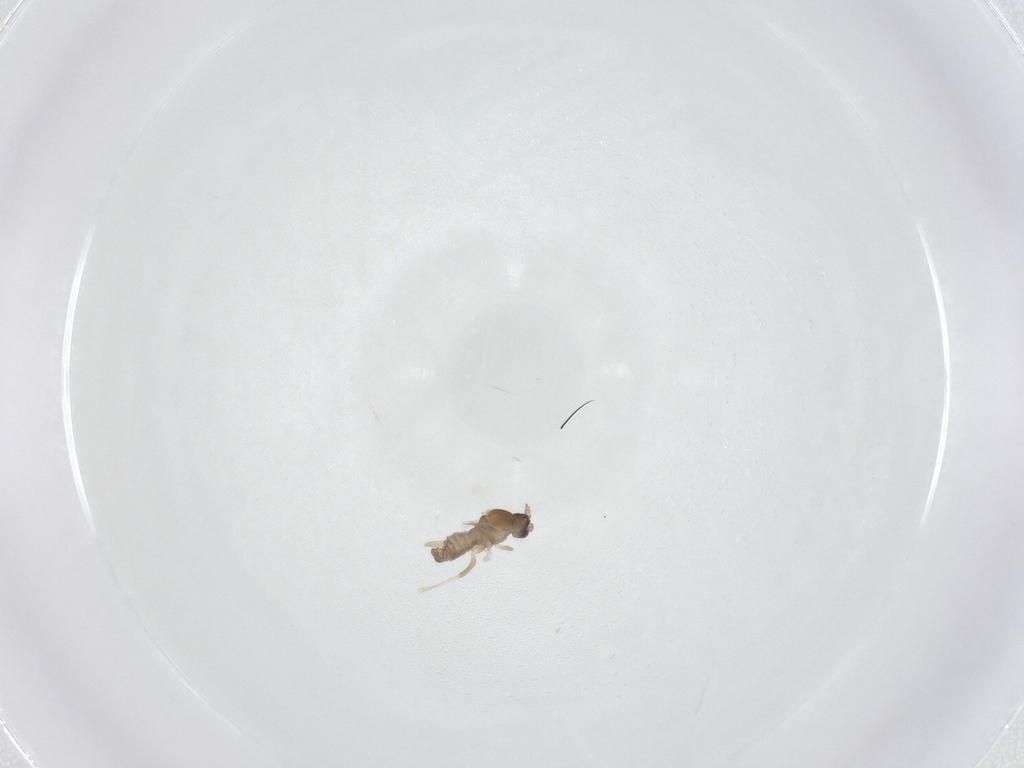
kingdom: Animalia
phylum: Arthropoda
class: Insecta
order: Diptera
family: Cecidomyiidae
